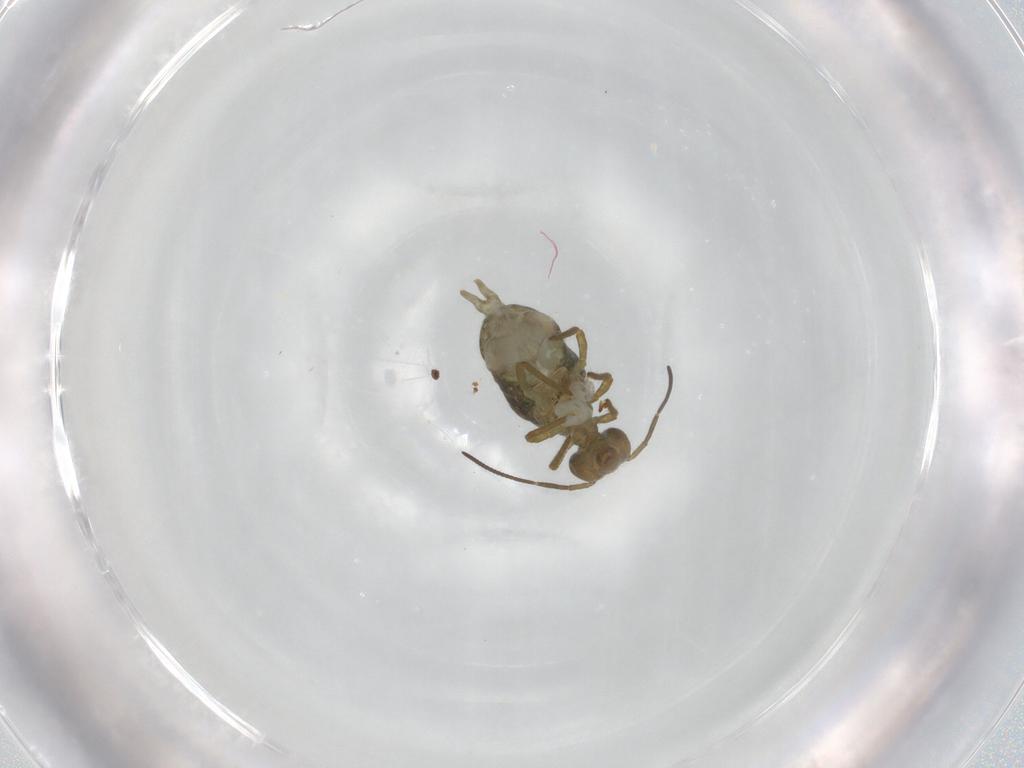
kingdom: Animalia
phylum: Arthropoda
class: Collembola
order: Symphypleona
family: Sminthuridae
